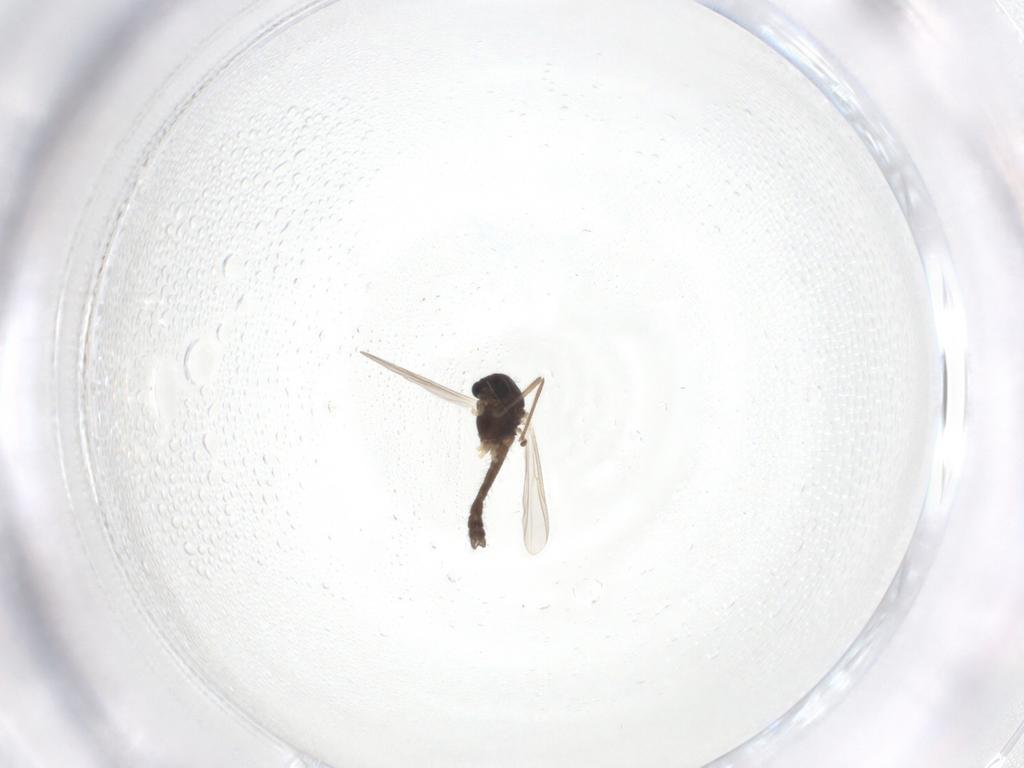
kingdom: Animalia
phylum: Arthropoda
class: Insecta
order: Diptera
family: Chironomidae
